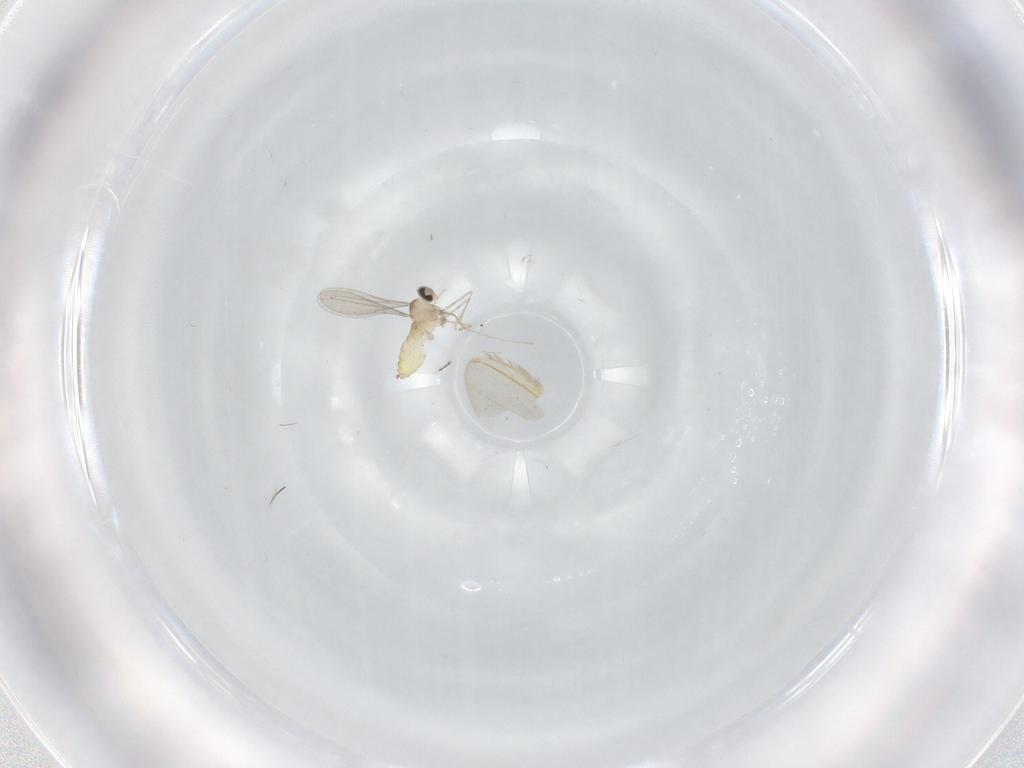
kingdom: Animalia
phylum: Arthropoda
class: Insecta
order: Diptera
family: Cecidomyiidae
